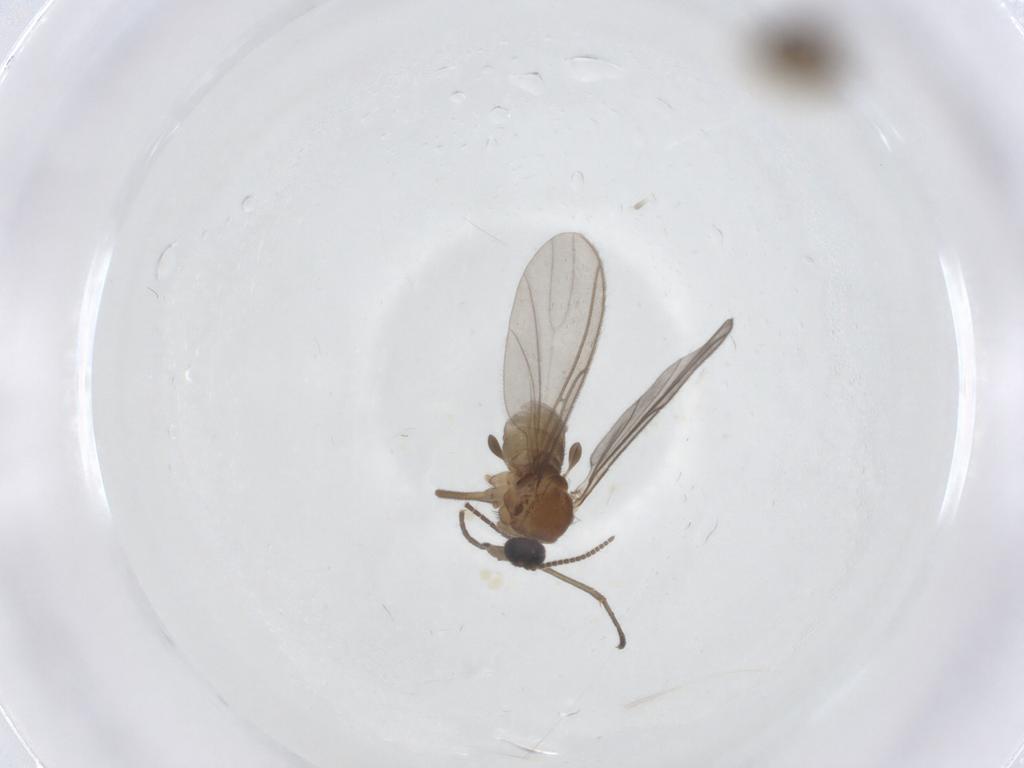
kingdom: Animalia
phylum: Arthropoda
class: Insecta
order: Diptera
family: Sciaridae
